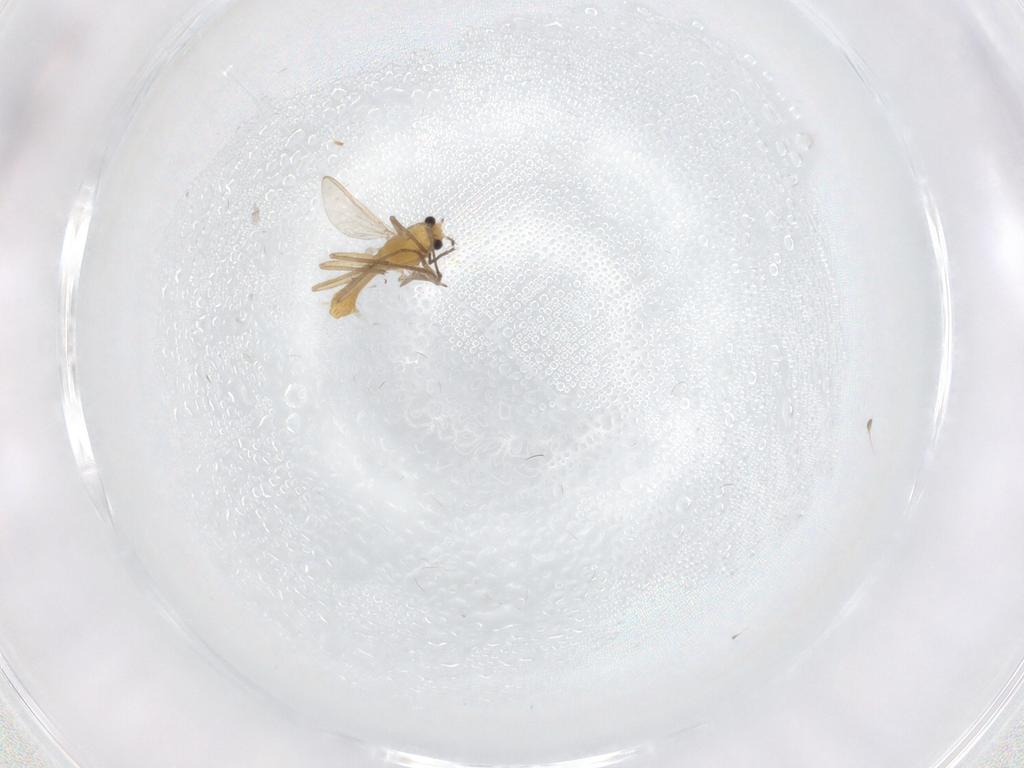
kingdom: Animalia
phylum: Arthropoda
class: Insecta
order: Diptera
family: Chironomidae
